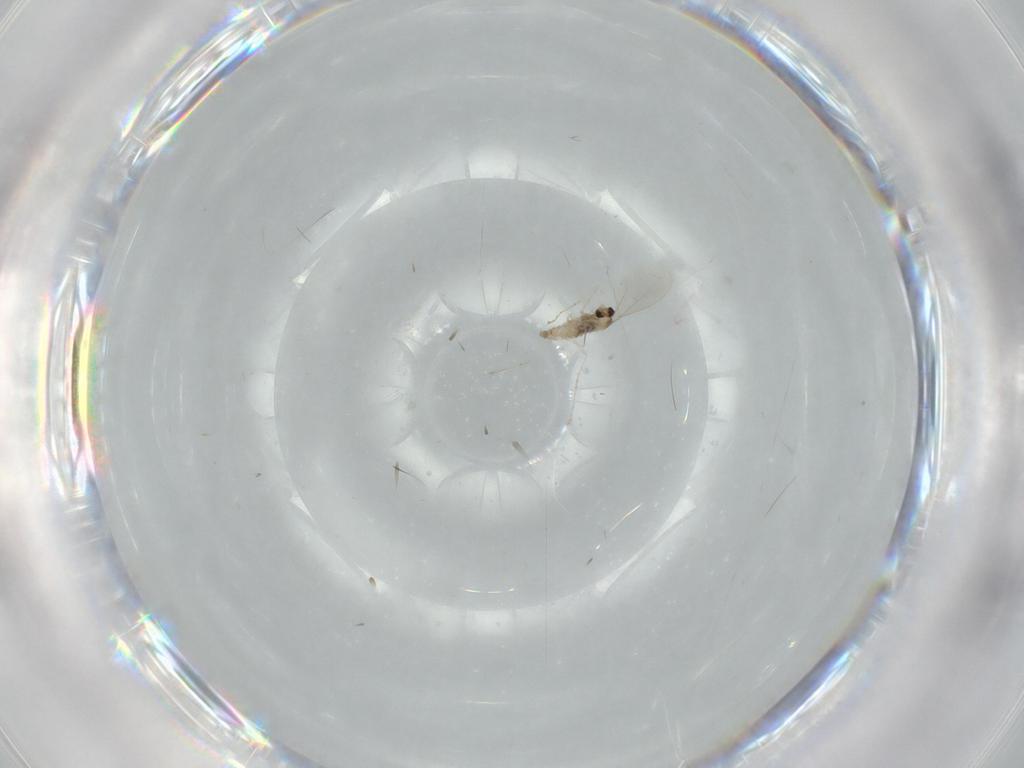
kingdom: Animalia
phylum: Arthropoda
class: Insecta
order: Diptera
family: Cecidomyiidae
